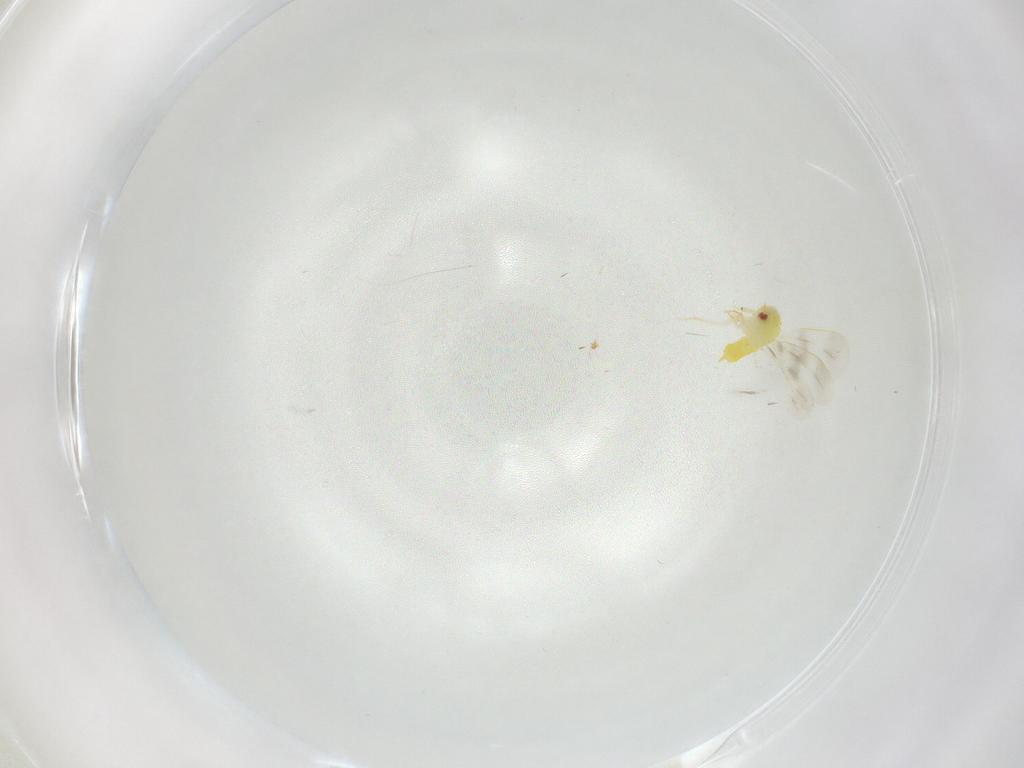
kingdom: Animalia
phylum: Arthropoda
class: Insecta
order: Hemiptera
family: Aleyrodidae
